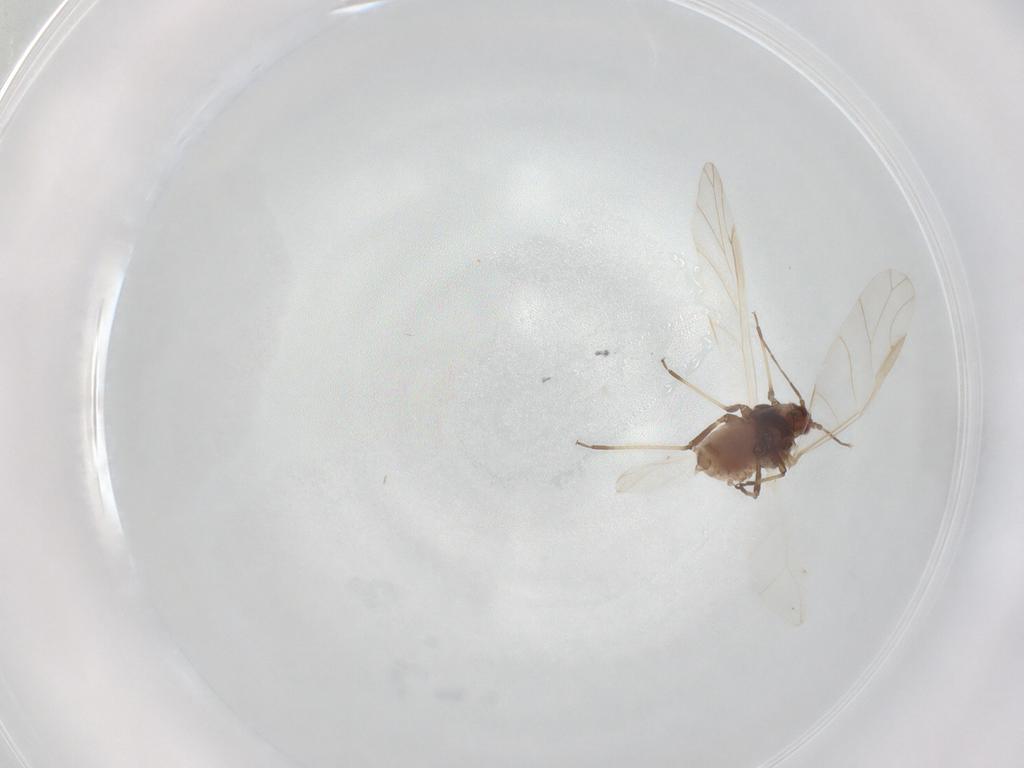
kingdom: Animalia
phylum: Arthropoda
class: Insecta
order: Hemiptera
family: Aphididae
